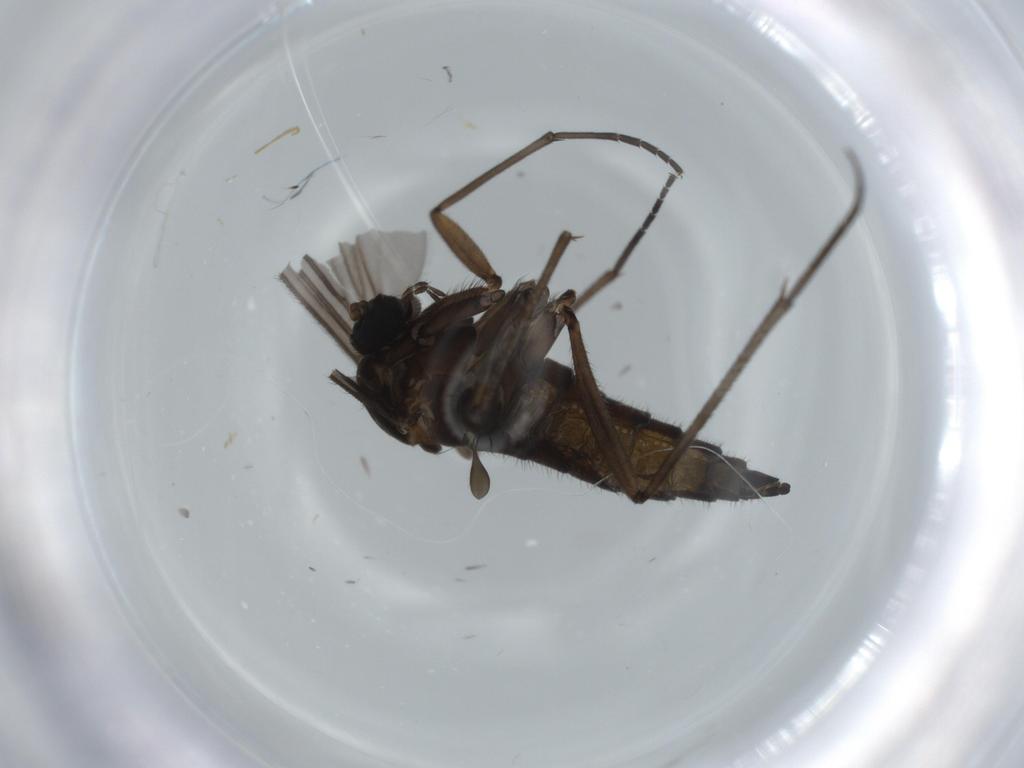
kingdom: Animalia
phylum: Arthropoda
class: Insecta
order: Diptera
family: Sciaridae
